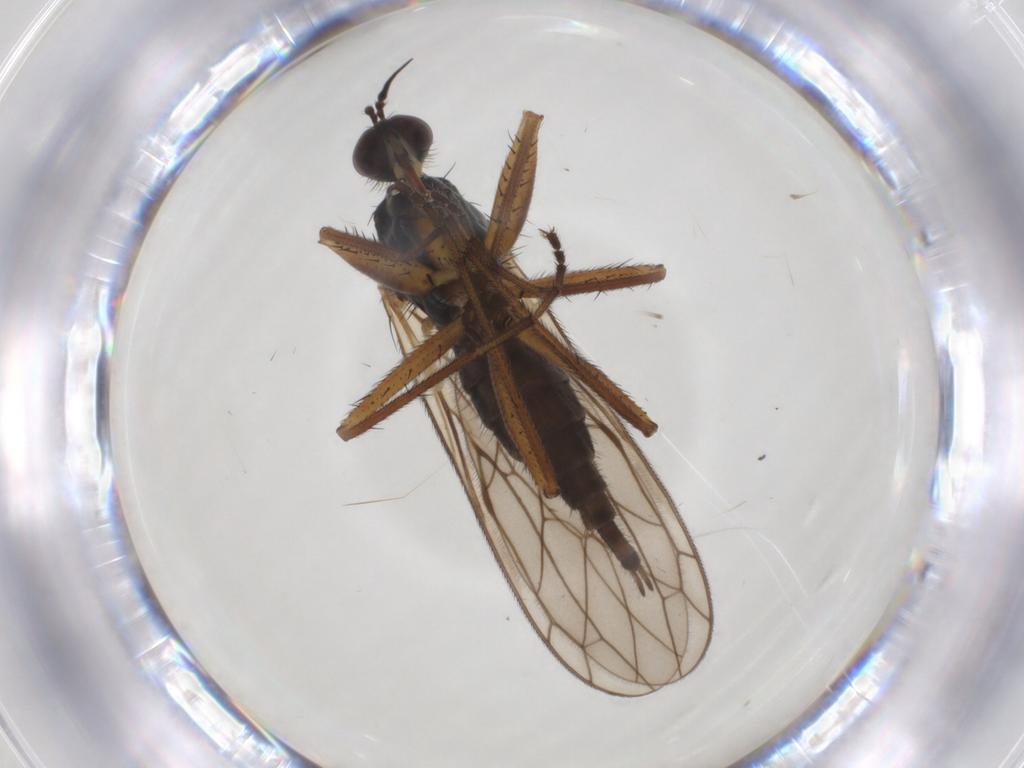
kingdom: Animalia
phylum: Arthropoda
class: Insecta
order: Diptera
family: Empididae
